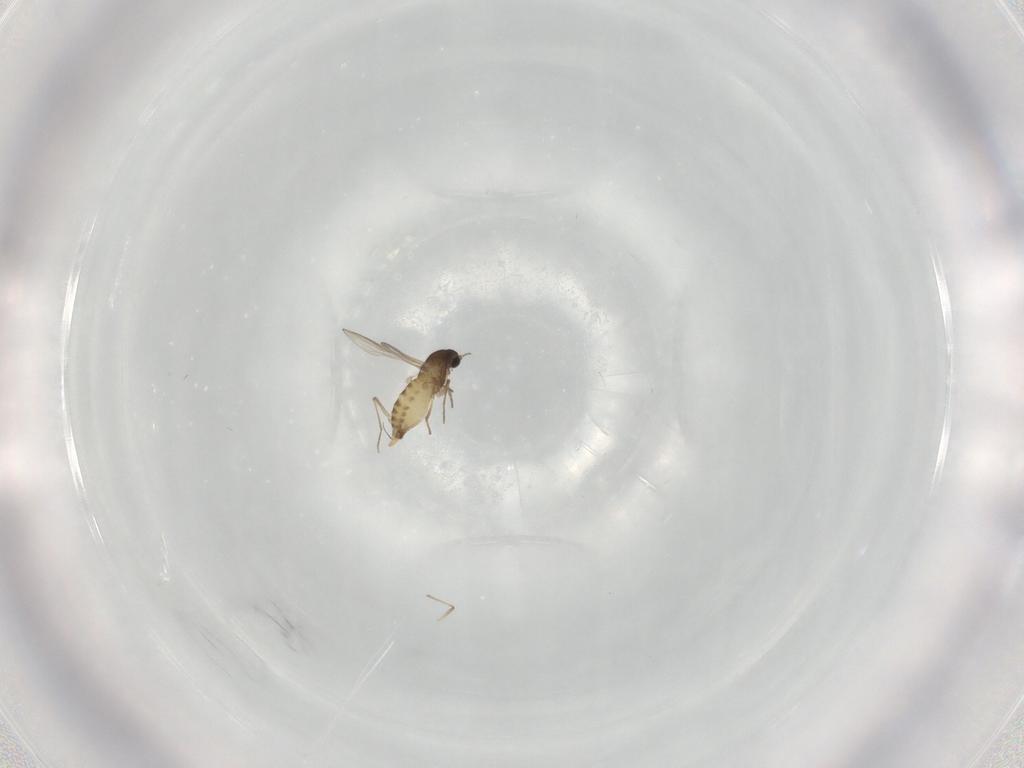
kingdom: Animalia
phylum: Arthropoda
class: Insecta
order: Diptera
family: Chironomidae
